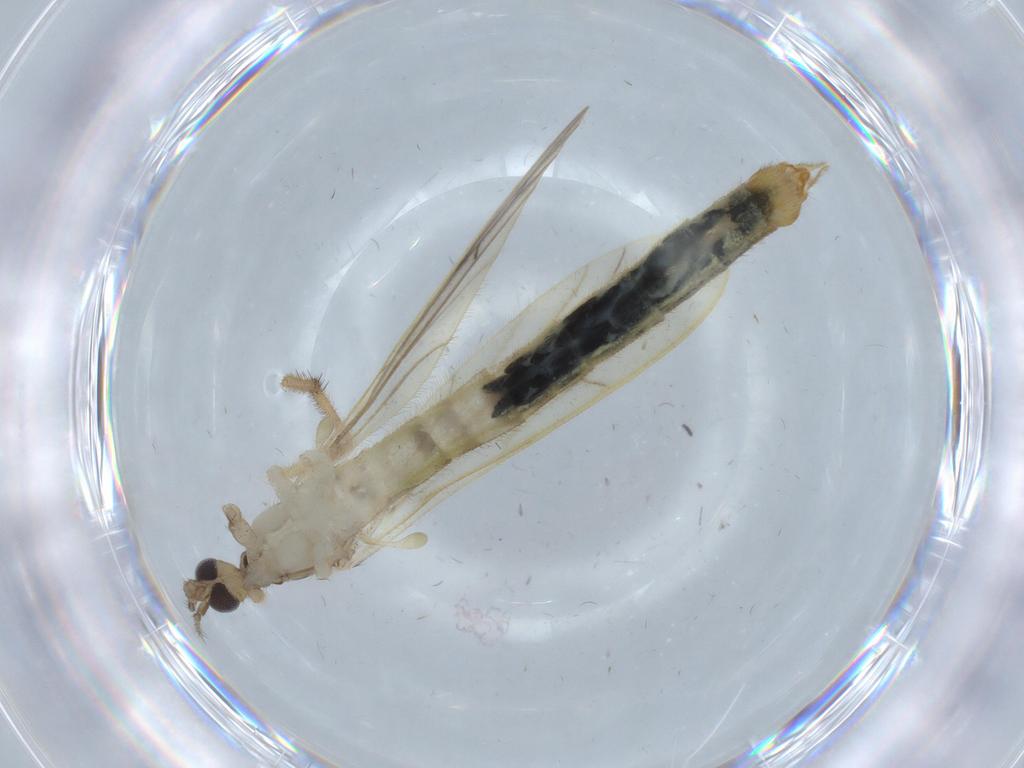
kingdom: Animalia
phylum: Arthropoda
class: Insecta
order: Diptera
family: Limoniidae
